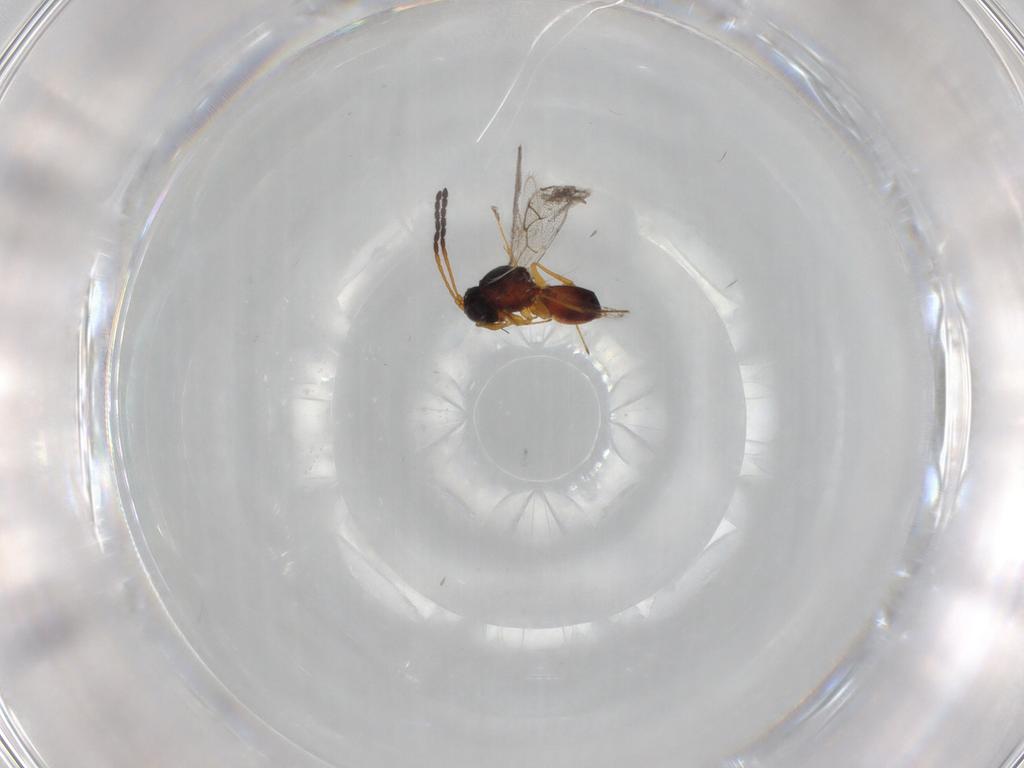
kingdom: Animalia
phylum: Arthropoda
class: Insecta
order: Hymenoptera
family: Figitidae
